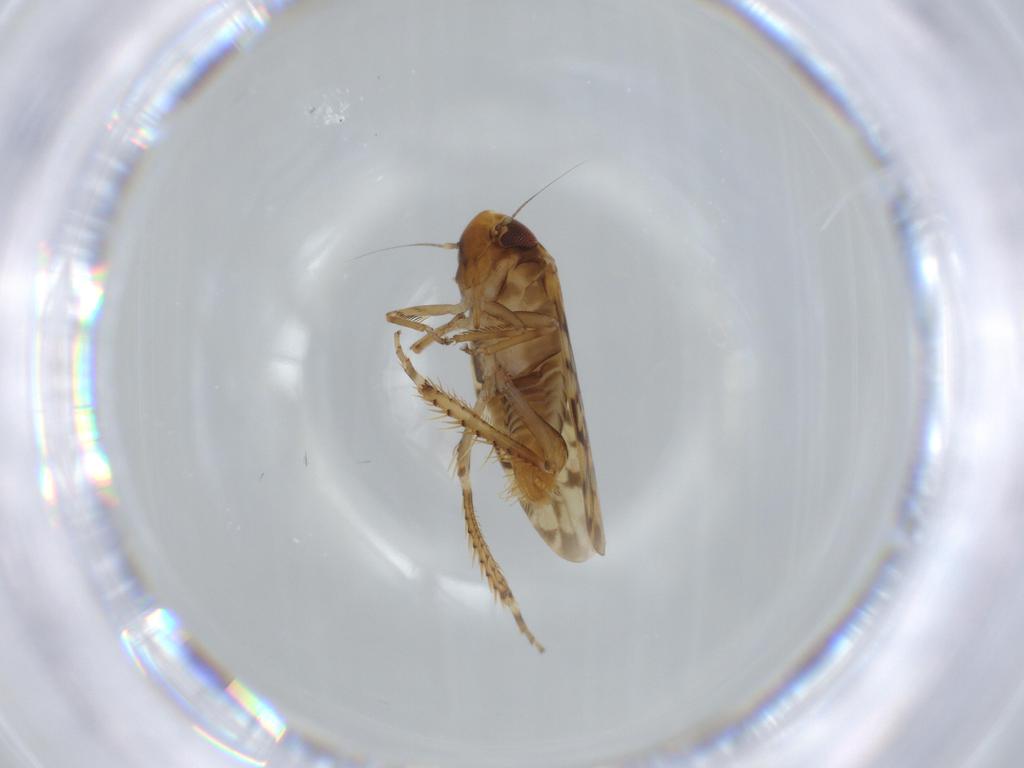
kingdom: Animalia
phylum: Arthropoda
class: Insecta
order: Hemiptera
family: Cicadellidae
